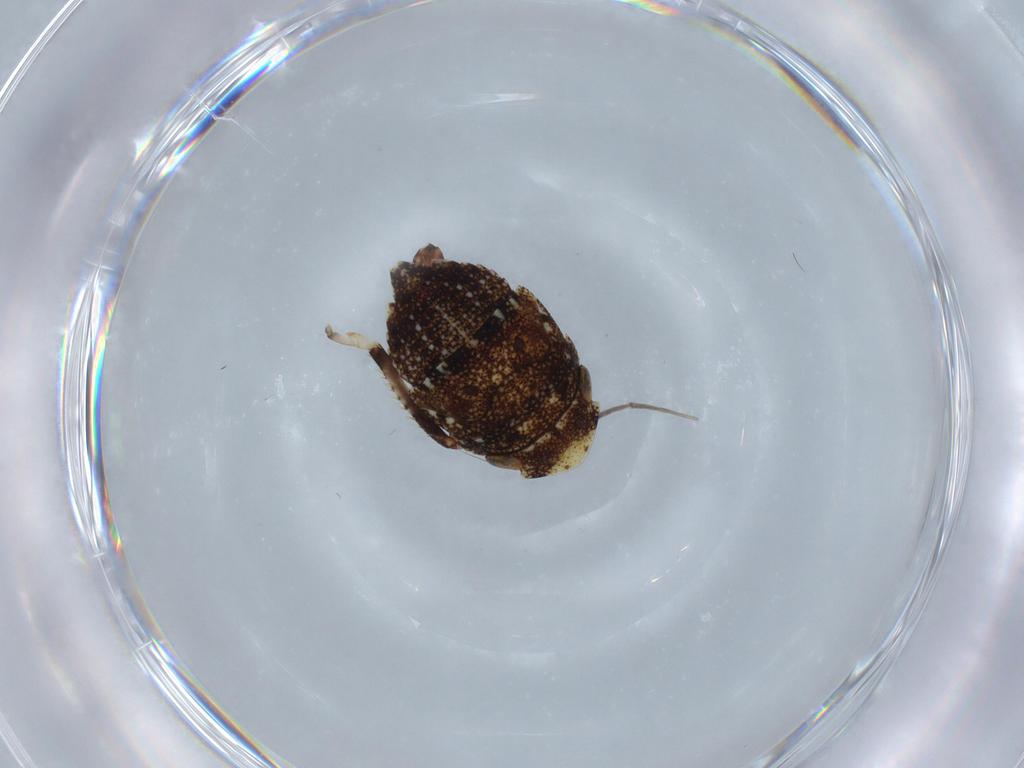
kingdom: Animalia
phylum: Arthropoda
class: Insecta
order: Hemiptera
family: Cicadellidae
